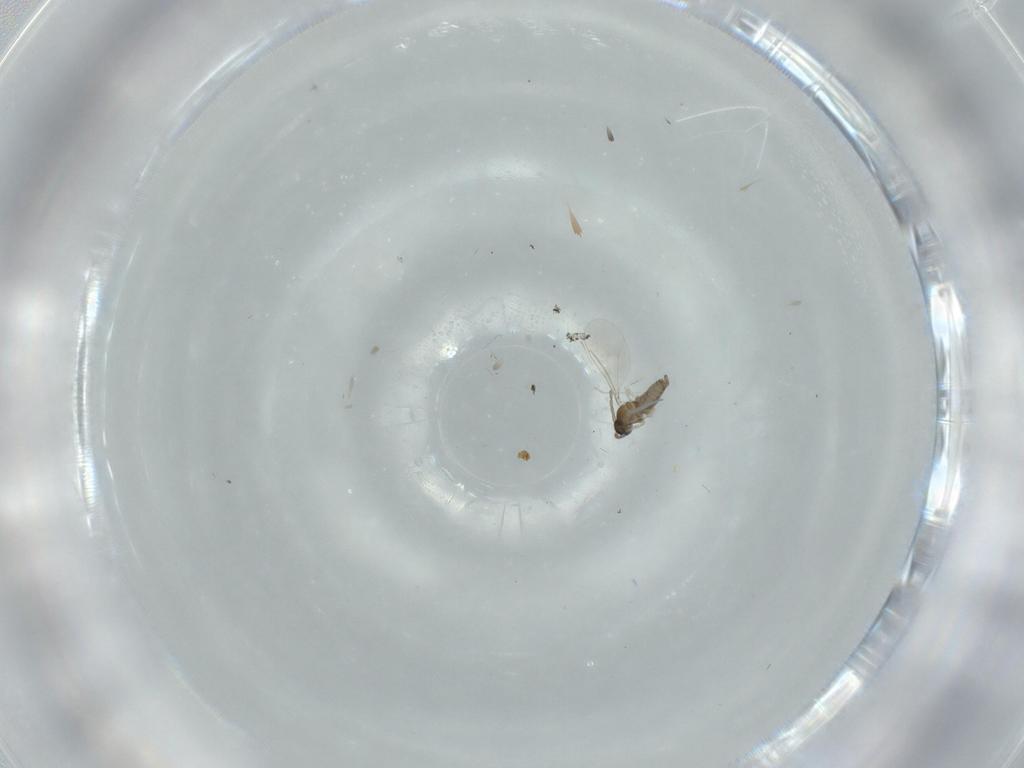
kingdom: Animalia
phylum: Arthropoda
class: Insecta
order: Diptera
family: Cecidomyiidae
